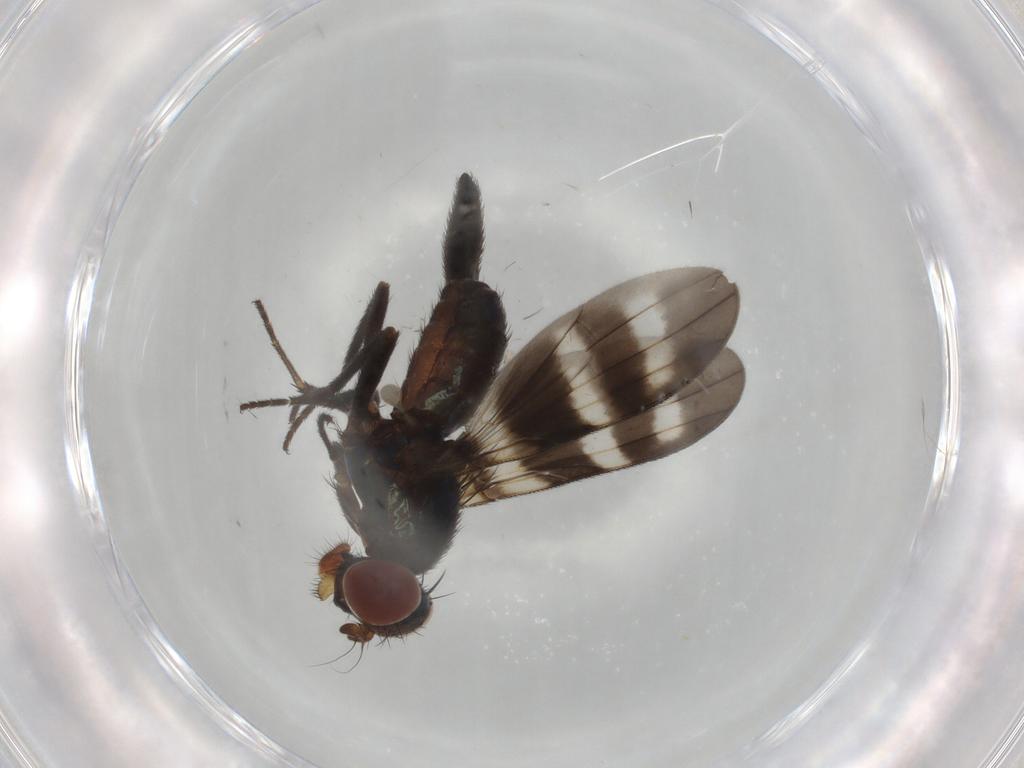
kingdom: Animalia
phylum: Arthropoda
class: Insecta
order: Diptera
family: Ulidiidae
